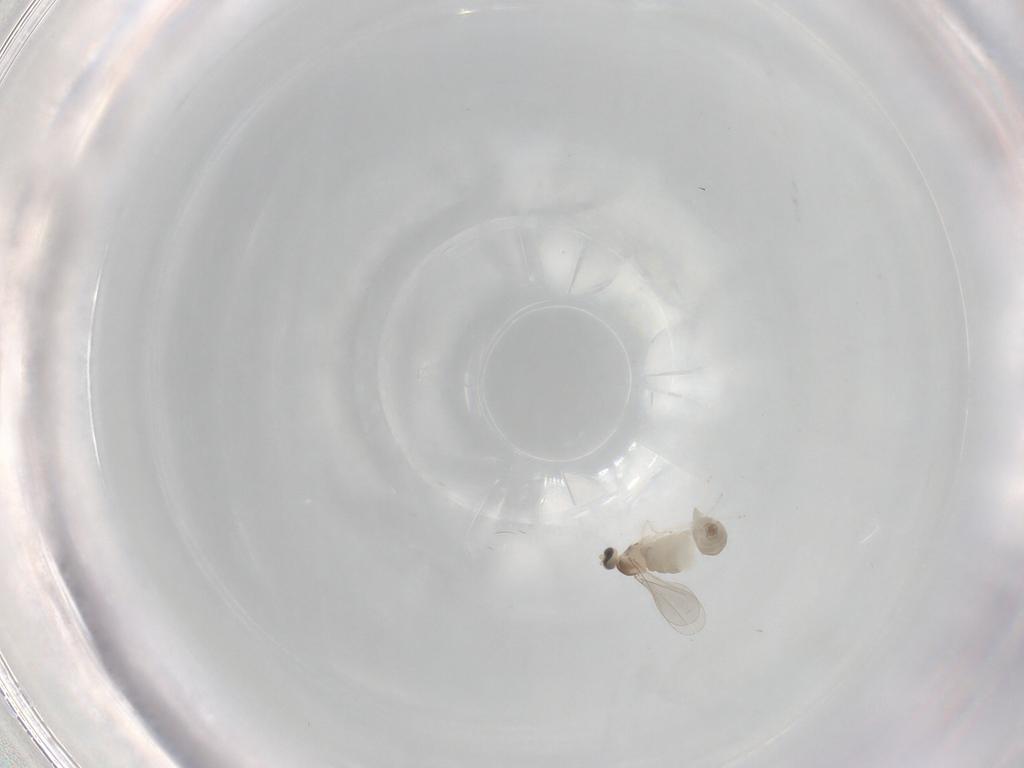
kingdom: Animalia
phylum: Arthropoda
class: Insecta
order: Diptera
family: Chironomidae
